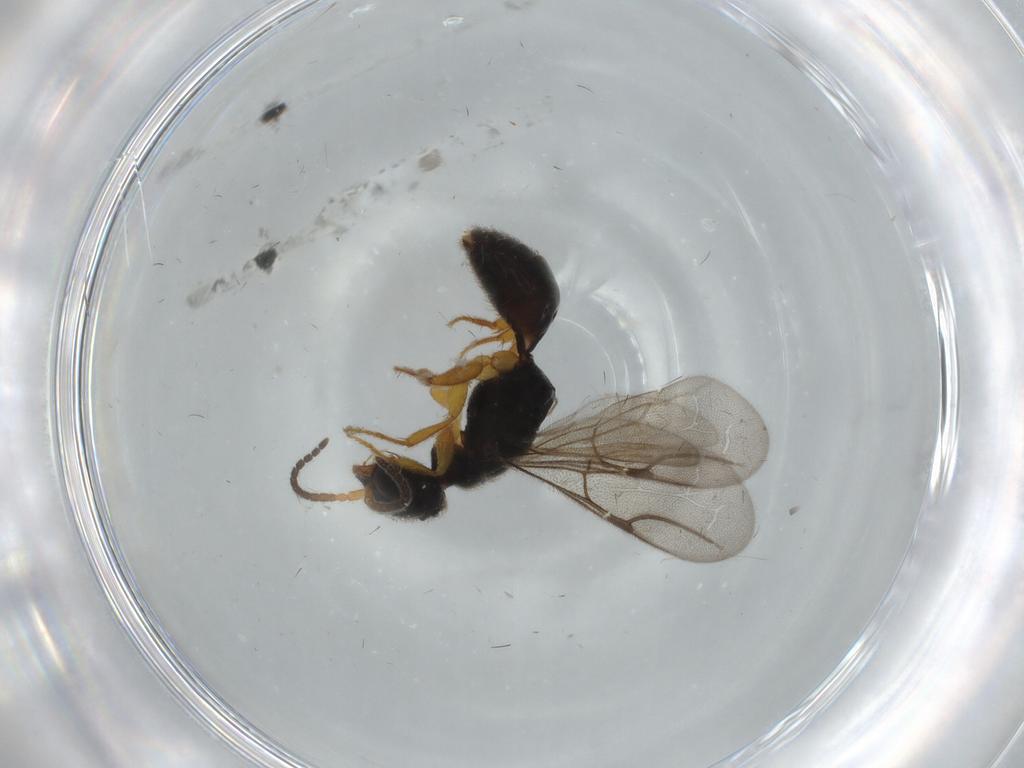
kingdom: Animalia
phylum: Arthropoda
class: Insecta
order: Hymenoptera
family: Bethylidae
